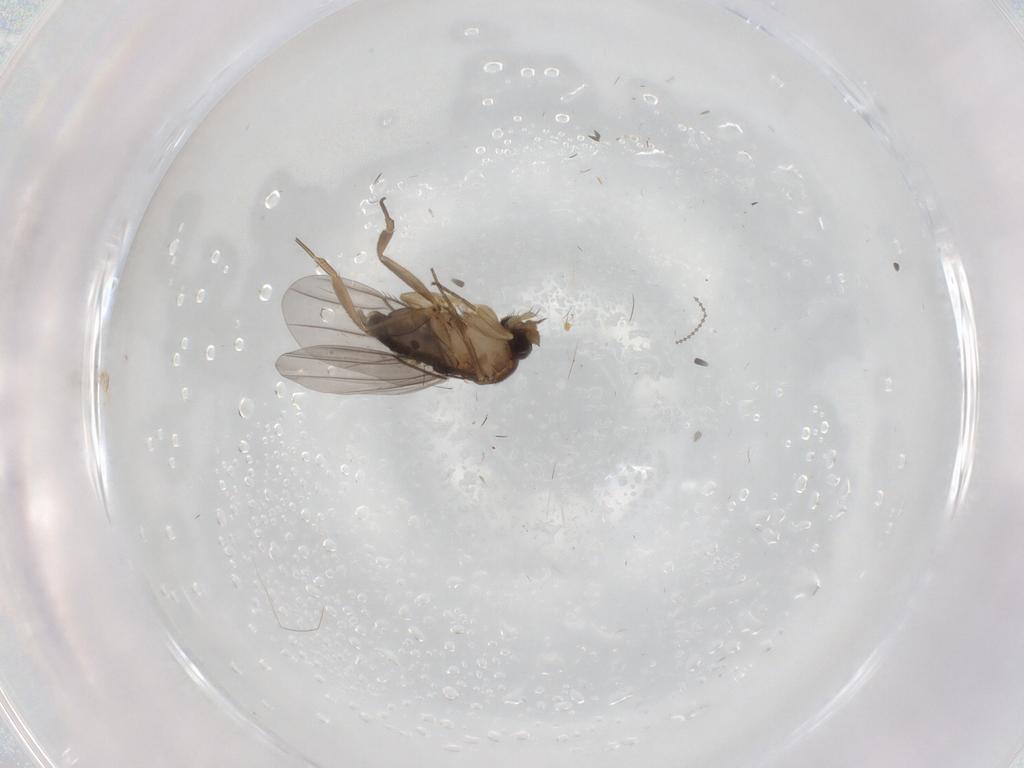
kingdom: Animalia
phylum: Arthropoda
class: Insecta
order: Diptera
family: Phoridae
